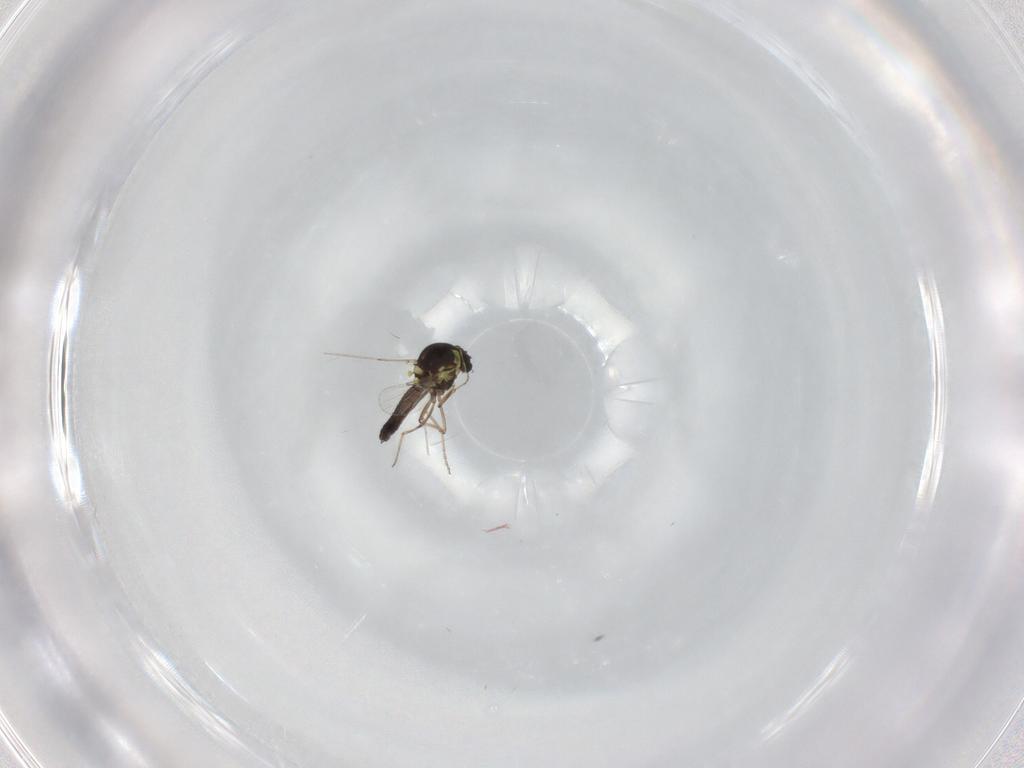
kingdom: Animalia
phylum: Arthropoda
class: Insecta
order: Diptera
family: Cecidomyiidae
